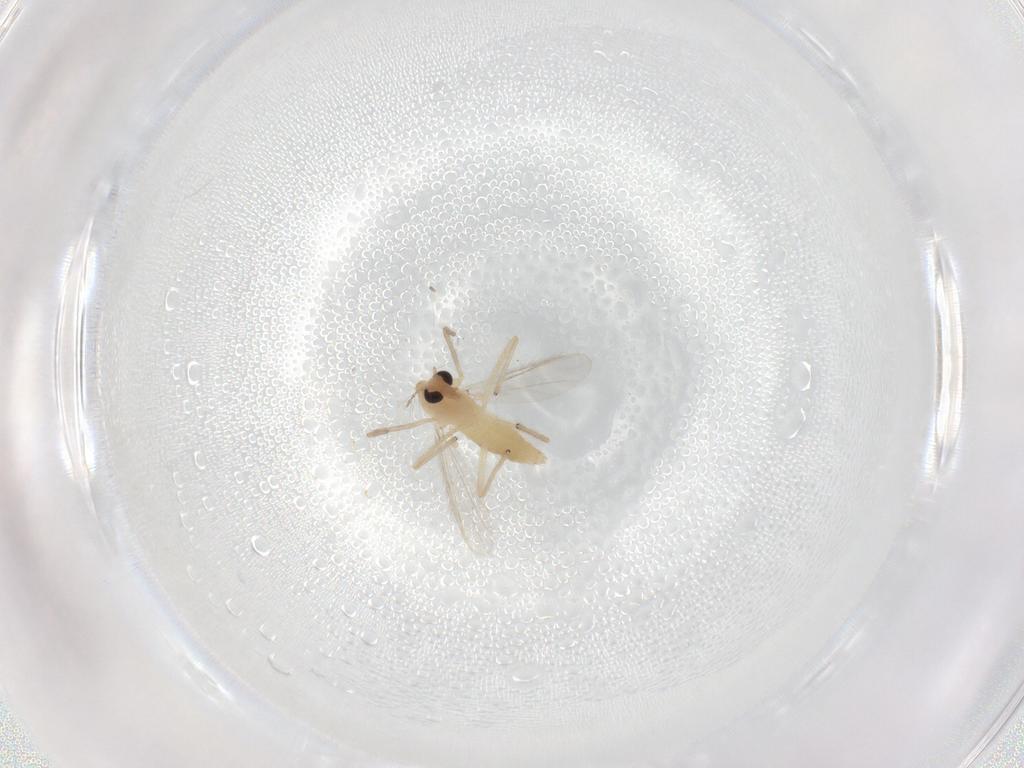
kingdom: Animalia
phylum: Arthropoda
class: Insecta
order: Diptera
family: Chironomidae
